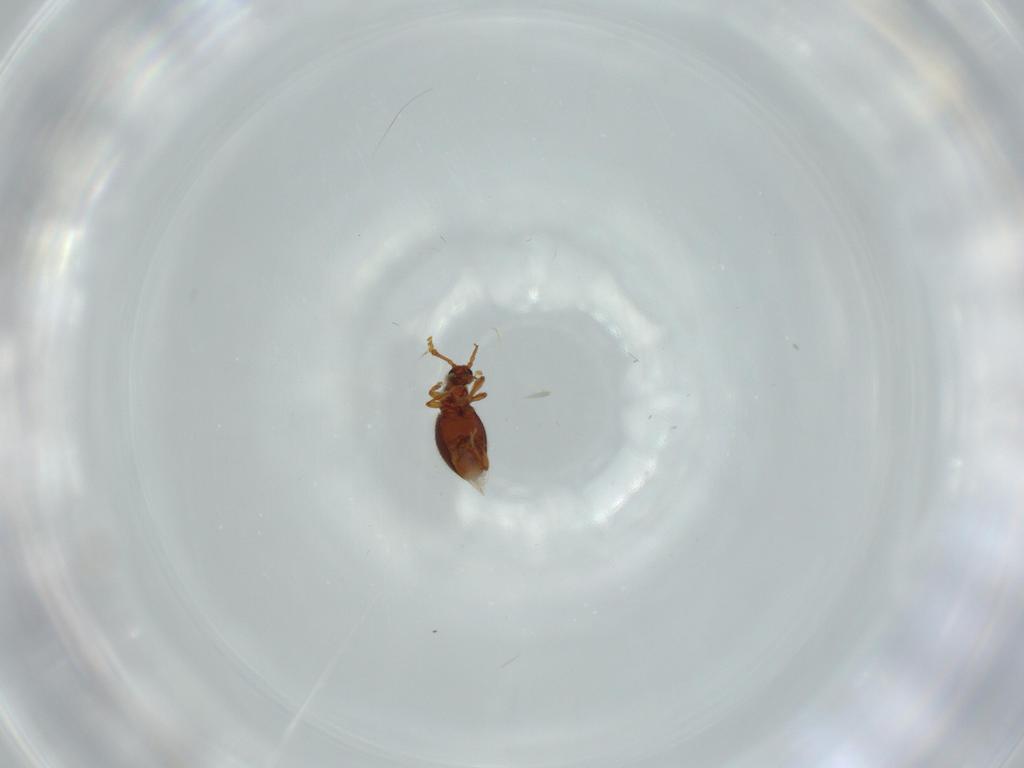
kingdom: Animalia
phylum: Arthropoda
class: Insecta
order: Coleoptera
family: Staphylinidae
